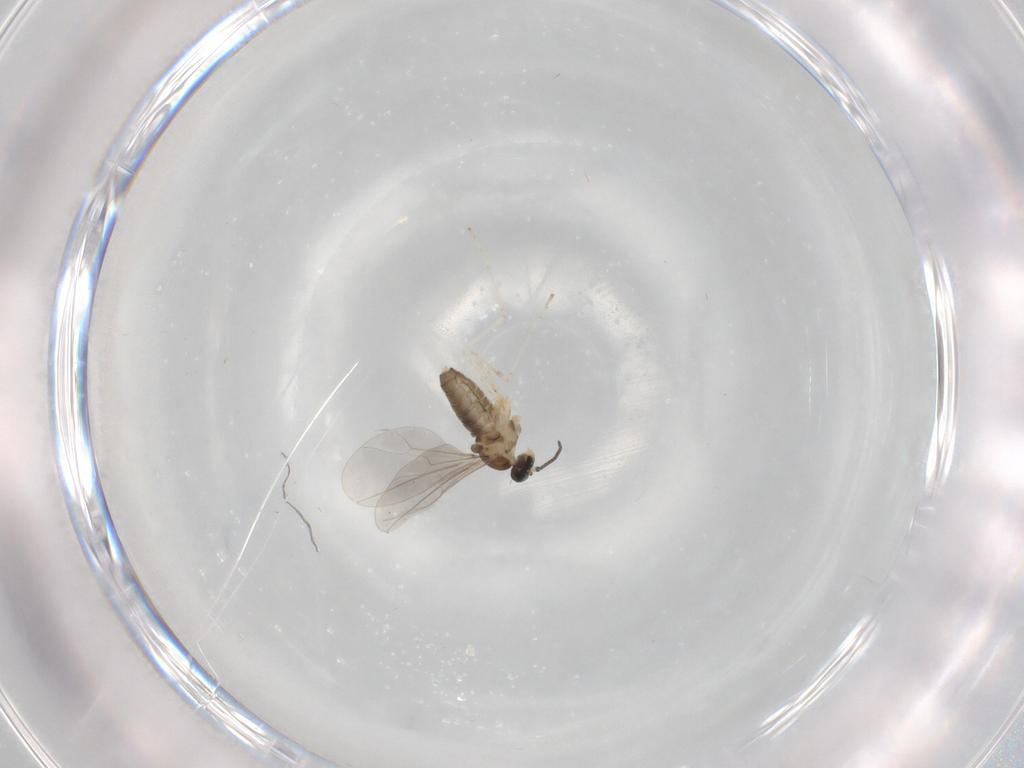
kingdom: Animalia
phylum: Arthropoda
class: Insecta
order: Diptera
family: Cecidomyiidae
